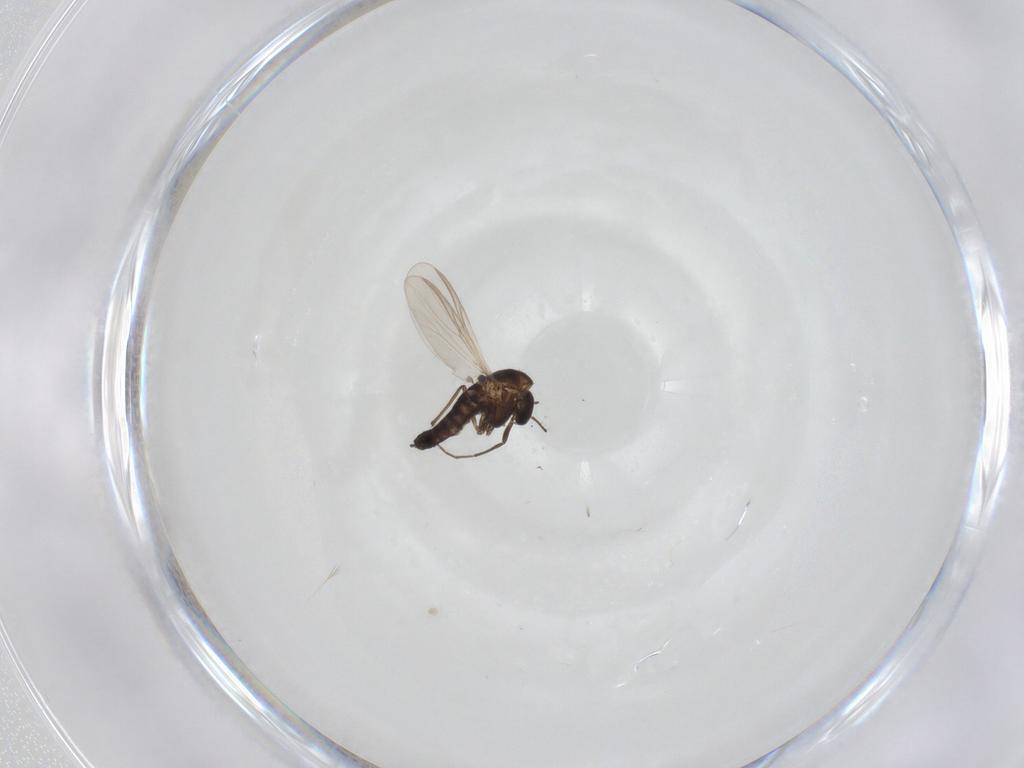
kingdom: Animalia
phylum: Arthropoda
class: Insecta
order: Diptera
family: Chironomidae
